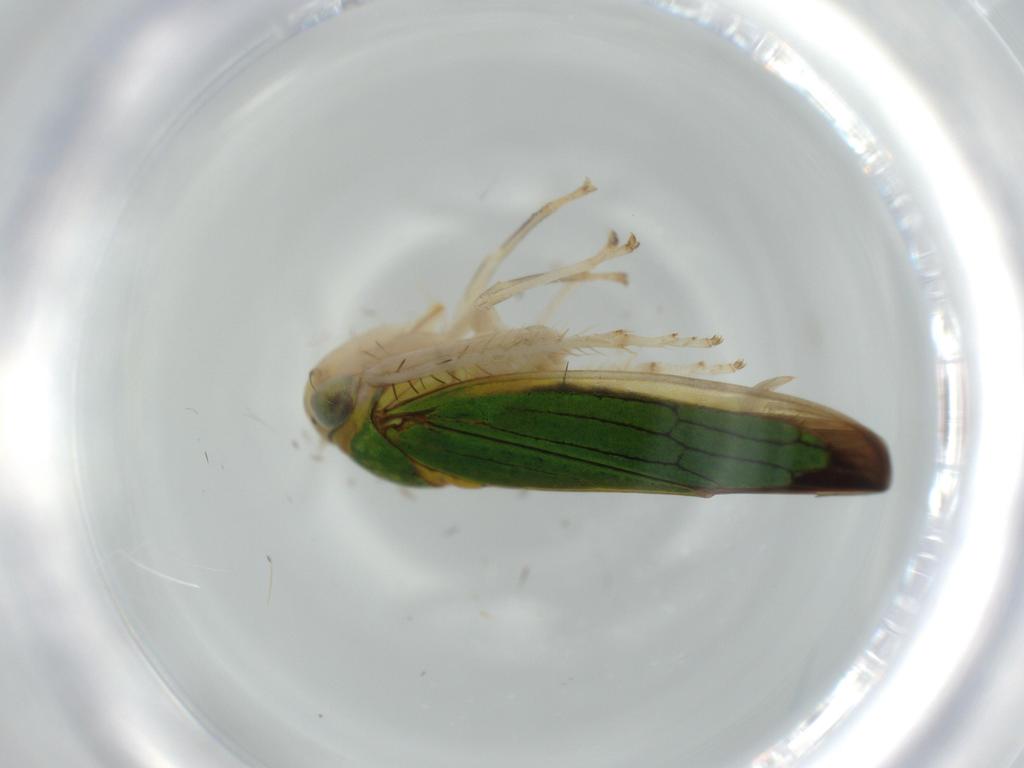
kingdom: Animalia
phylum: Arthropoda
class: Insecta
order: Hemiptera
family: Cicadellidae
